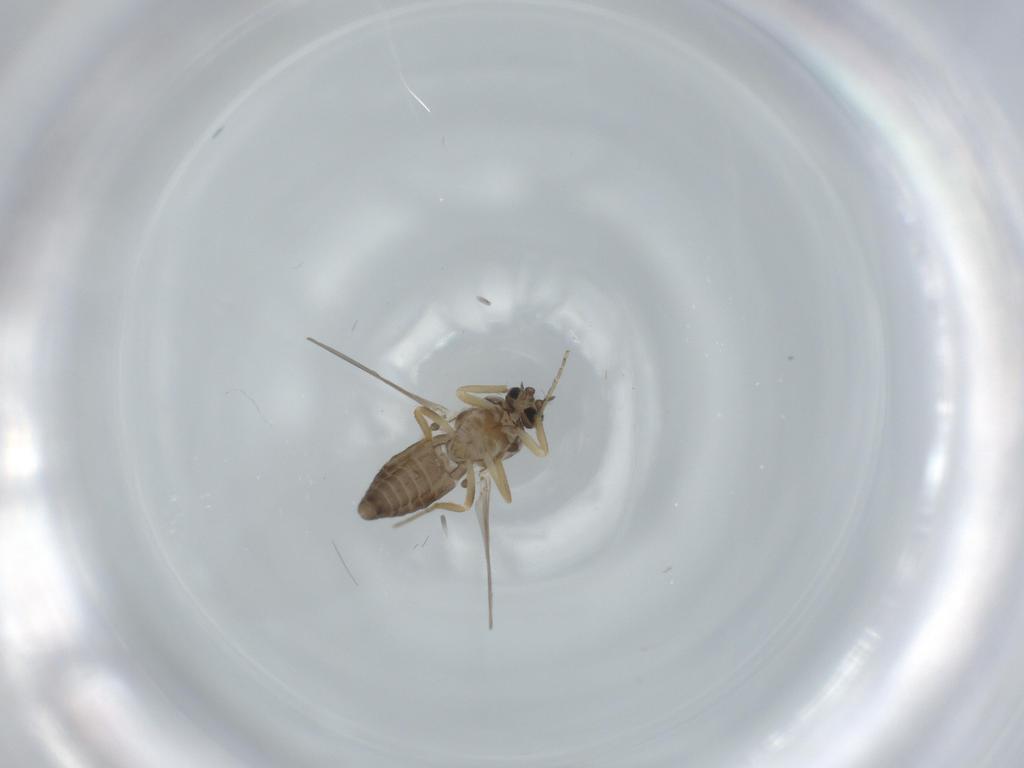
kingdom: Animalia
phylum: Arthropoda
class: Insecta
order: Diptera
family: Ceratopogonidae
